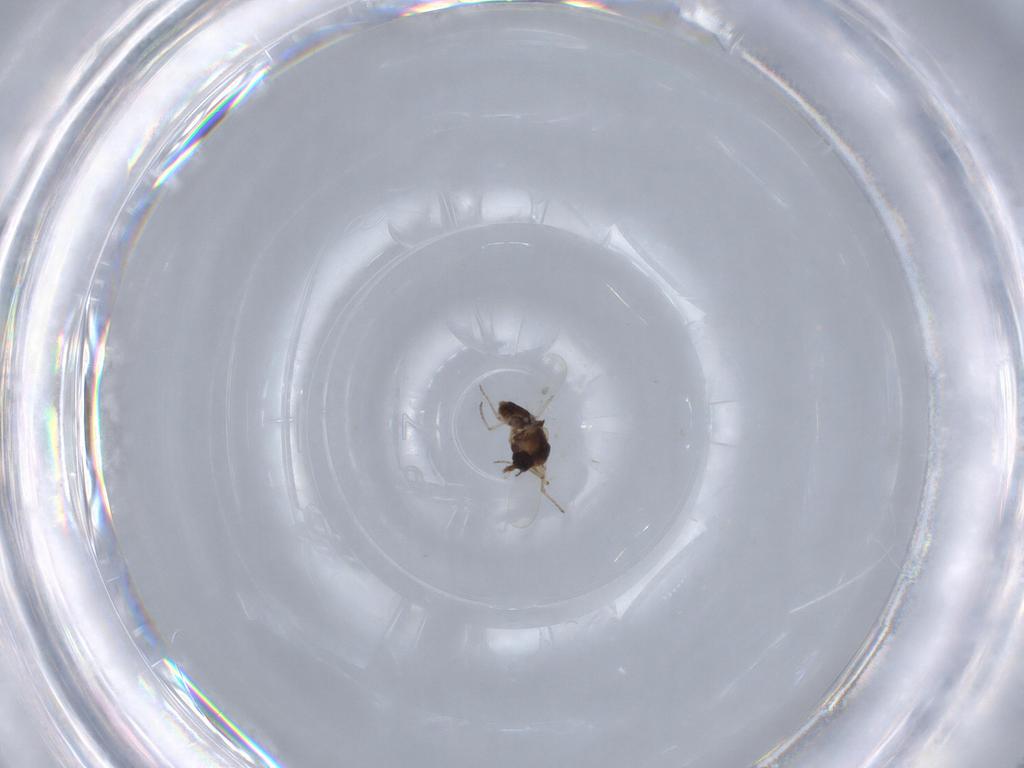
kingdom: Animalia
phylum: Arthropoda
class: Insecta
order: Diptera
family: Ceratopogonidae
